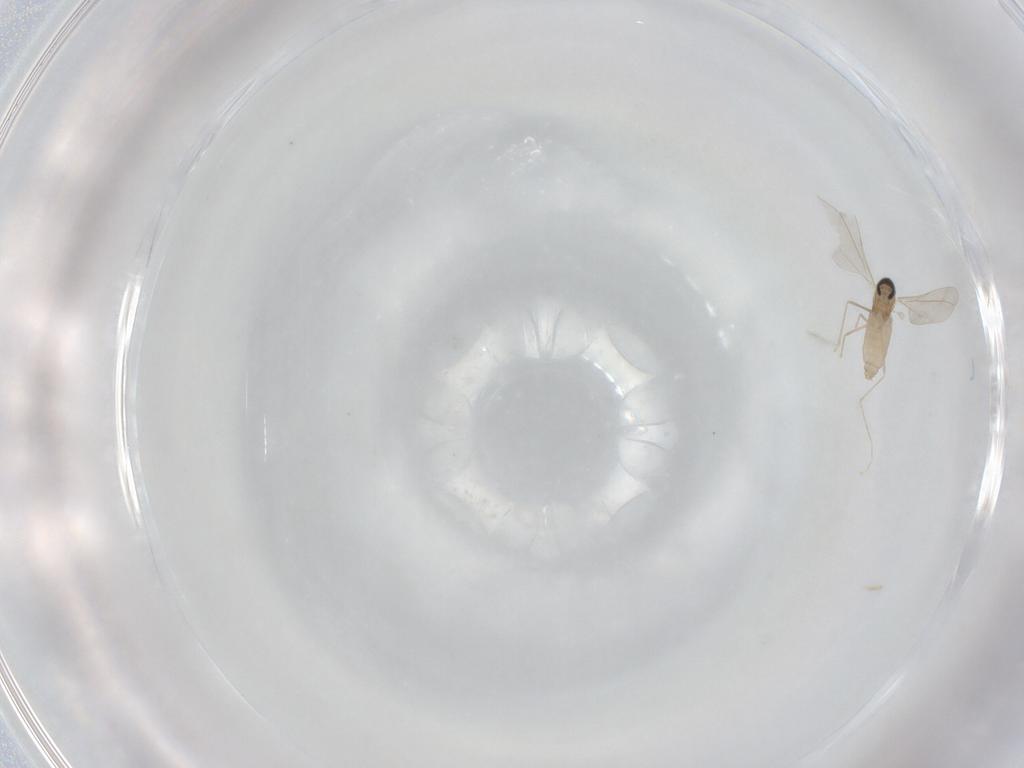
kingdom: Animalia
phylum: Arthropoda
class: Insecta
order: Diptera
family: Cecidomyiidae
